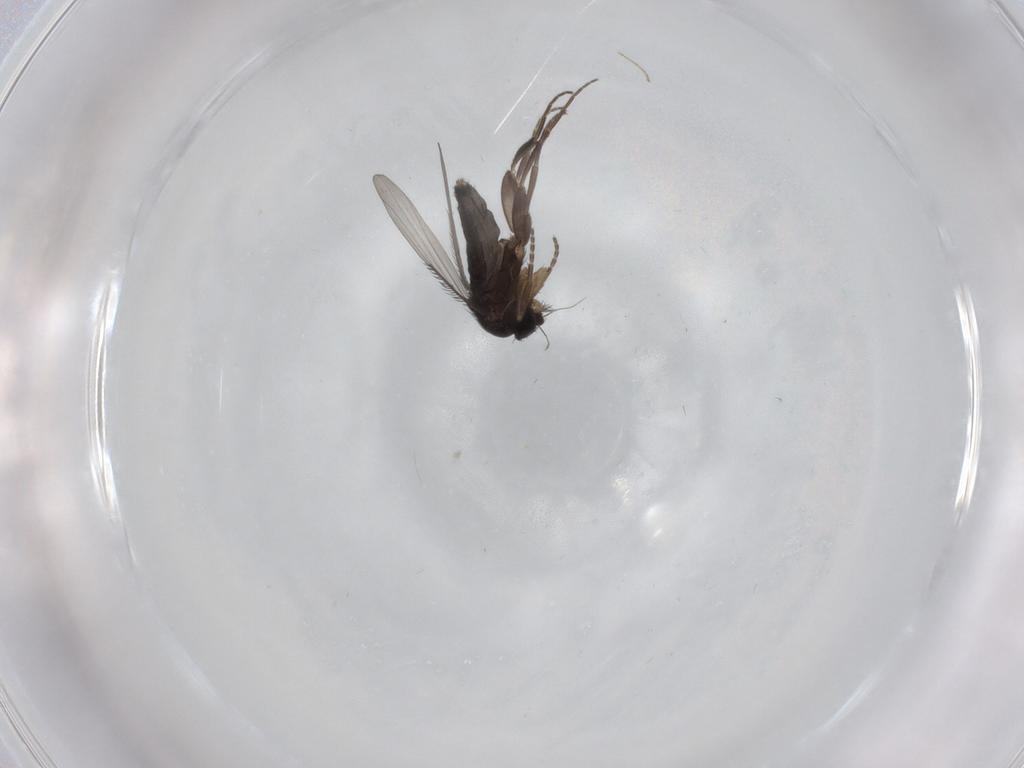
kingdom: Animalia
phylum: Arthropoda
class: Insecta
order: Diptera
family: Phoridae
